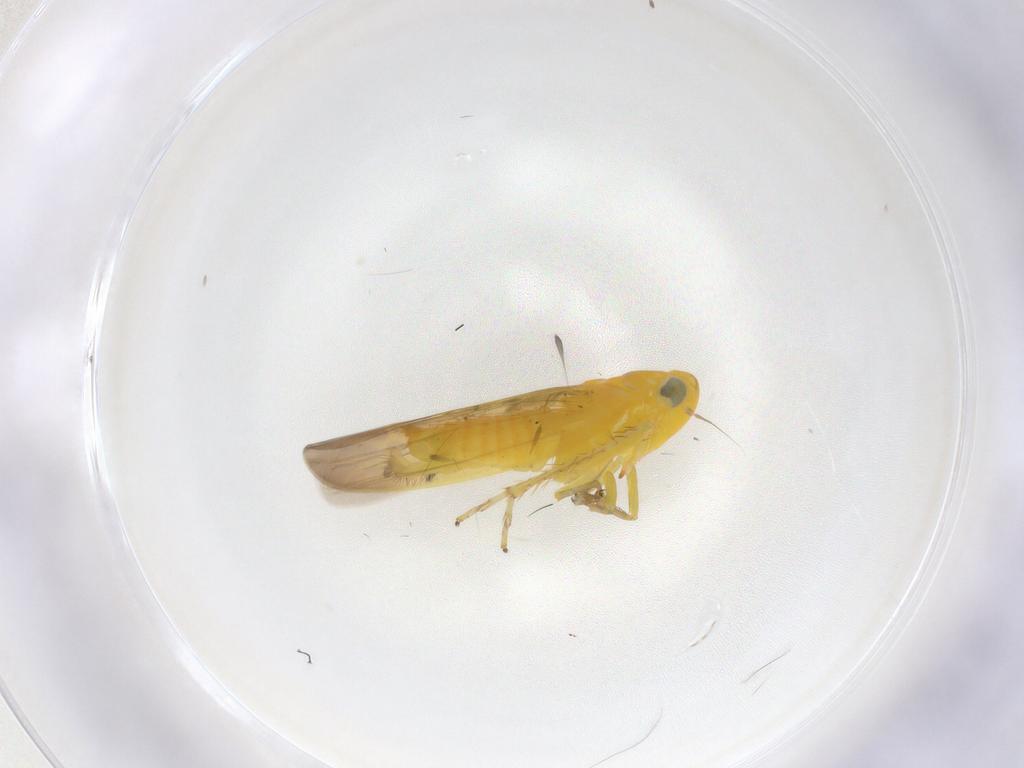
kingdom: Animalia
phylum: Arthropoda
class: Insecta
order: Hemiptera
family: Cicadellidae
